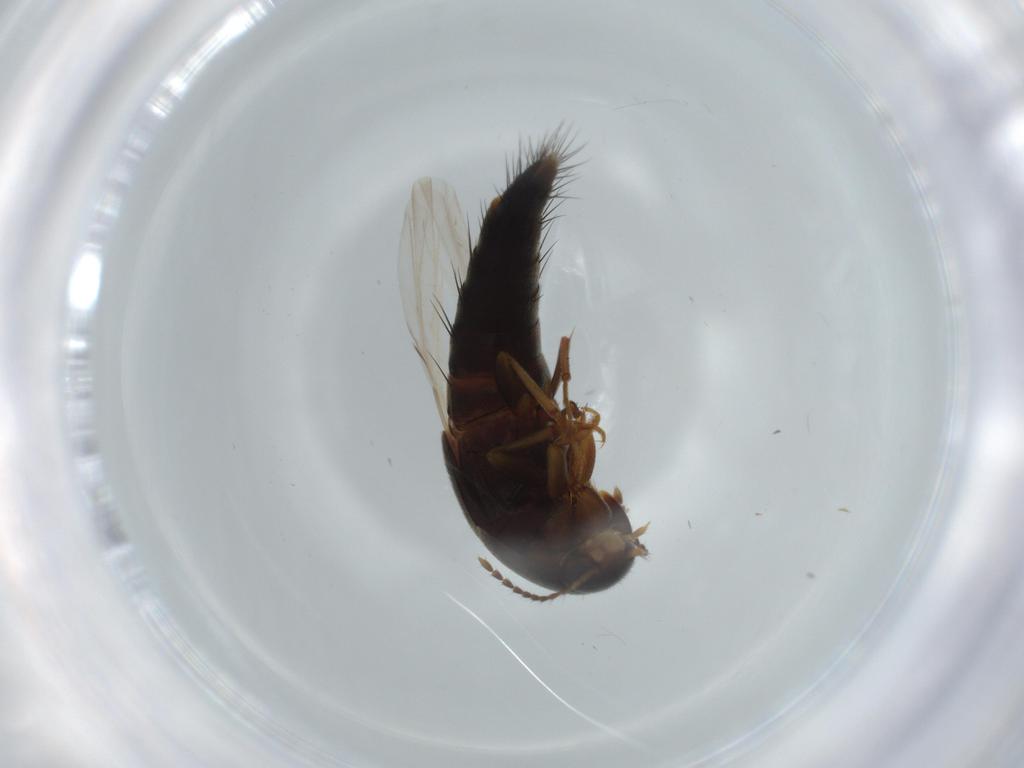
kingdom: Animalia
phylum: Arthropoda
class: Insecta
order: Coleoptera
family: Staphylinidae
